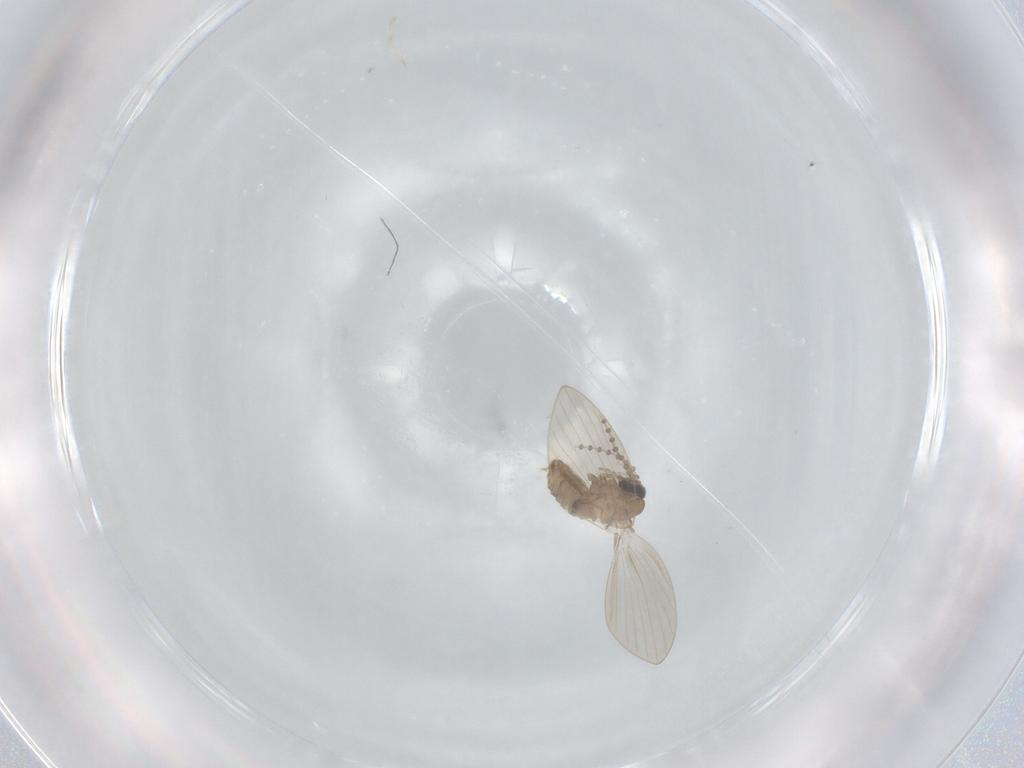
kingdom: Animalia
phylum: Arthropoda
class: Insecta
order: Diptera
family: Psychodidae
